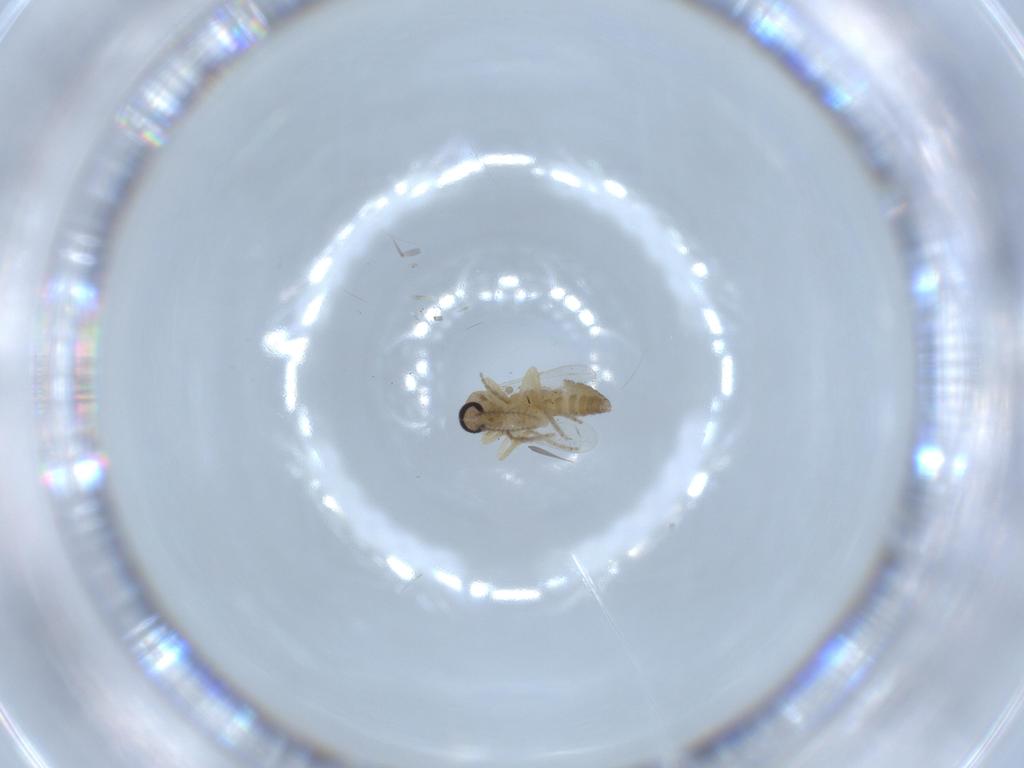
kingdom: Animalia
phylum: Arthropoda
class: Insecta
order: Diptera
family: Ceratopogonidae
